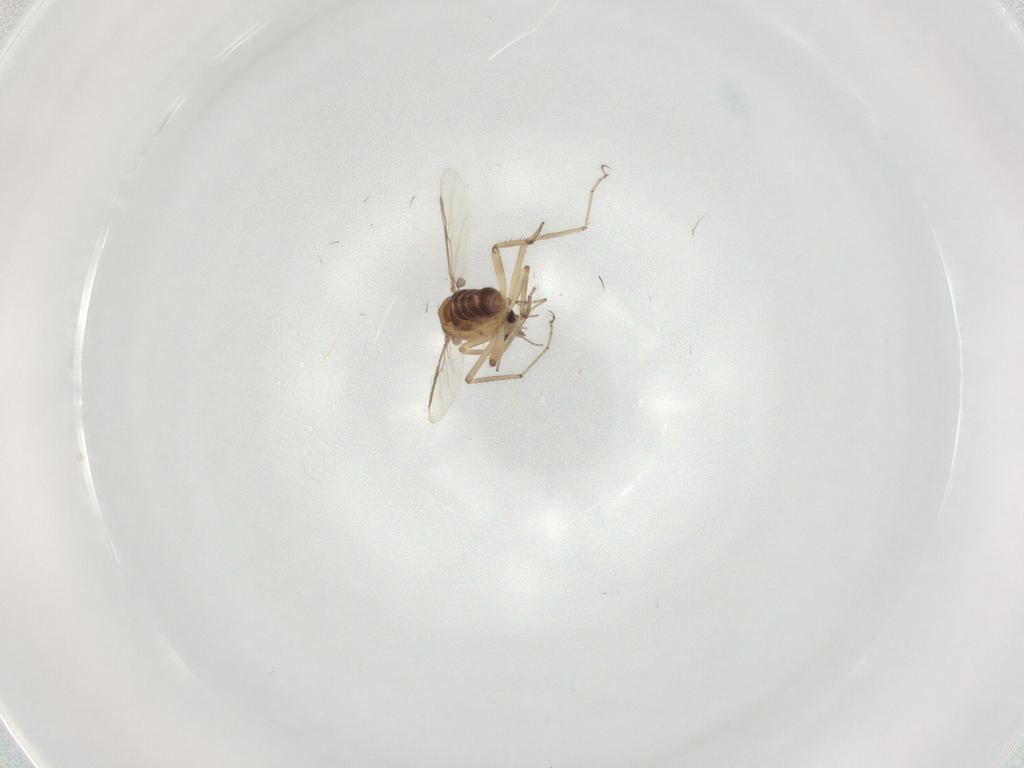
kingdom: Animalia
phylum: Arthropoda
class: Insecta
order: Diptera
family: Ceratopogonidae
